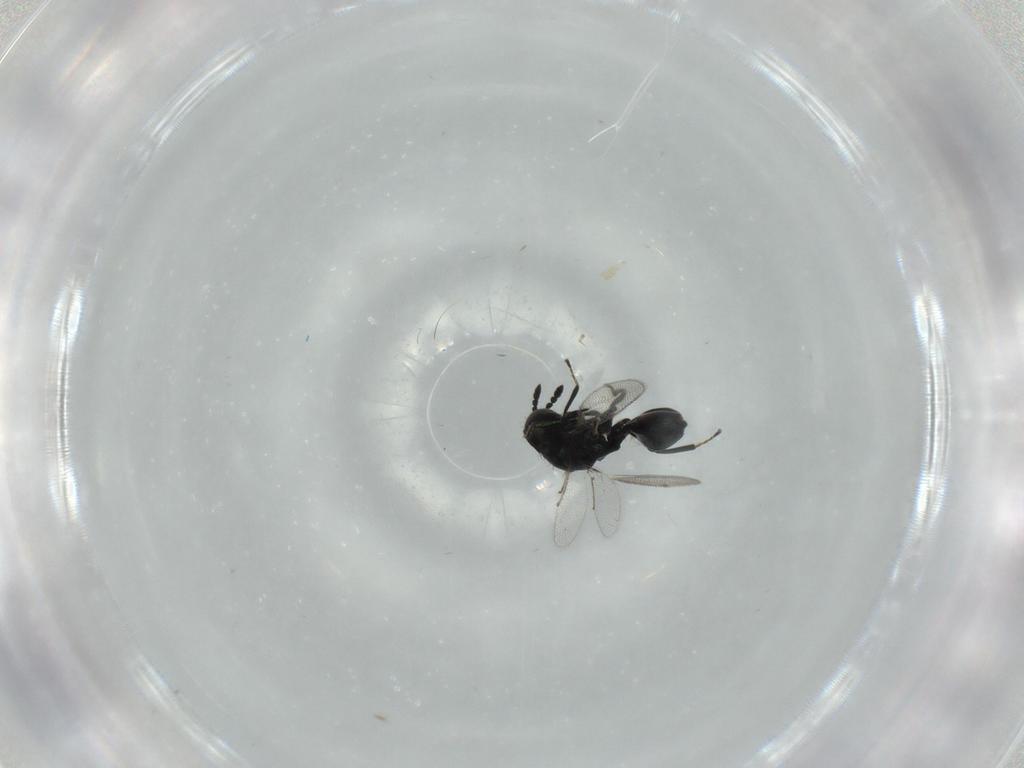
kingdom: Animalia
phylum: Arthropoda
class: Insecta
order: Hymenoptera
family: Eulophidae
